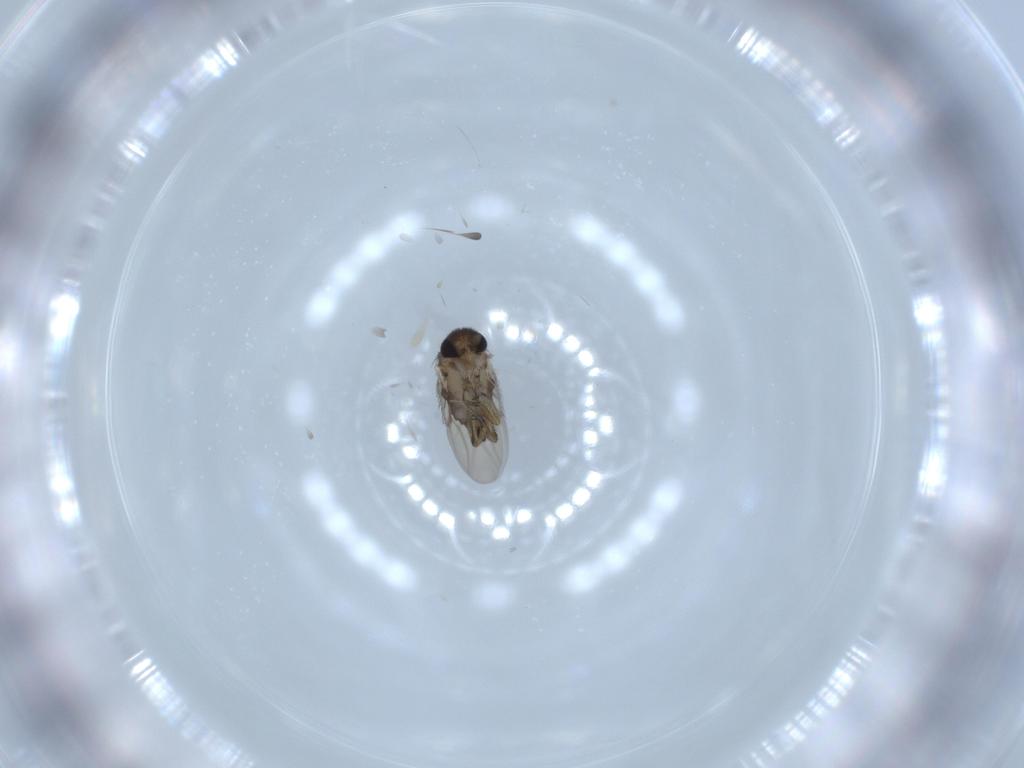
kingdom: Animalia
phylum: Arthropoda
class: Insecta
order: Diptera
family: Phoridae
